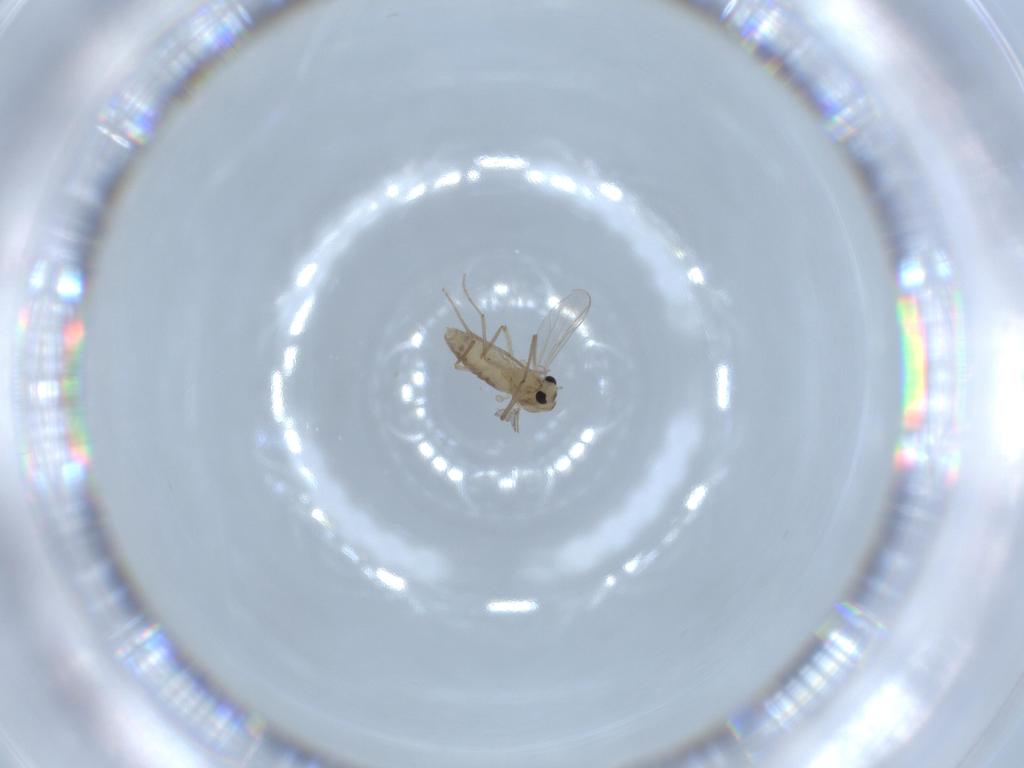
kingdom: Animalia
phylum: Arthropoda
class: Insecta
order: Diptera
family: Chironomidae
